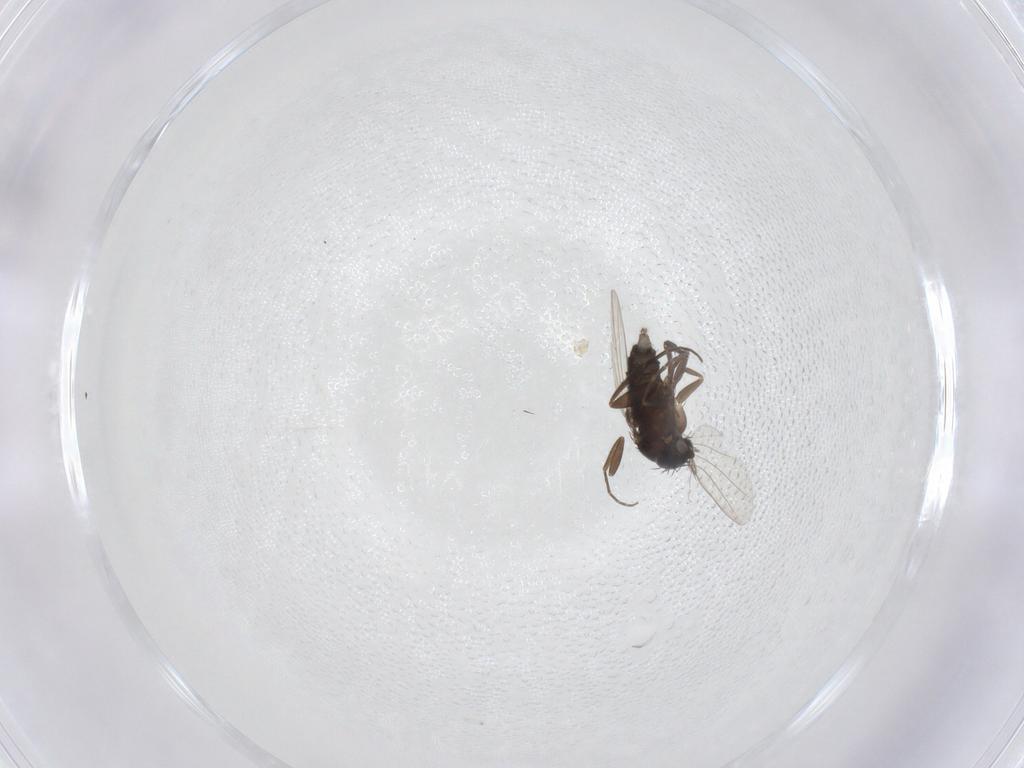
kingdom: Animalia
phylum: Arthropoda
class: Insecta
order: Diptera
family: Phoridae
